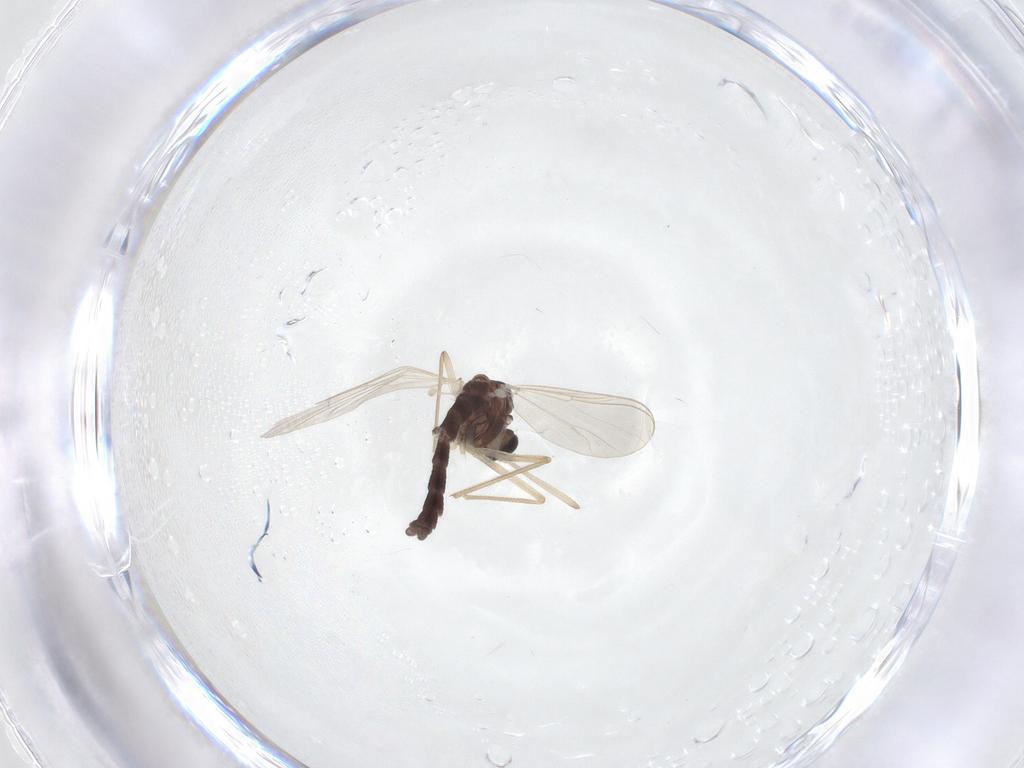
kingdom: Animalia
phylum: Arthropoda
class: Insecta
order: Diptera
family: Chironomidae
